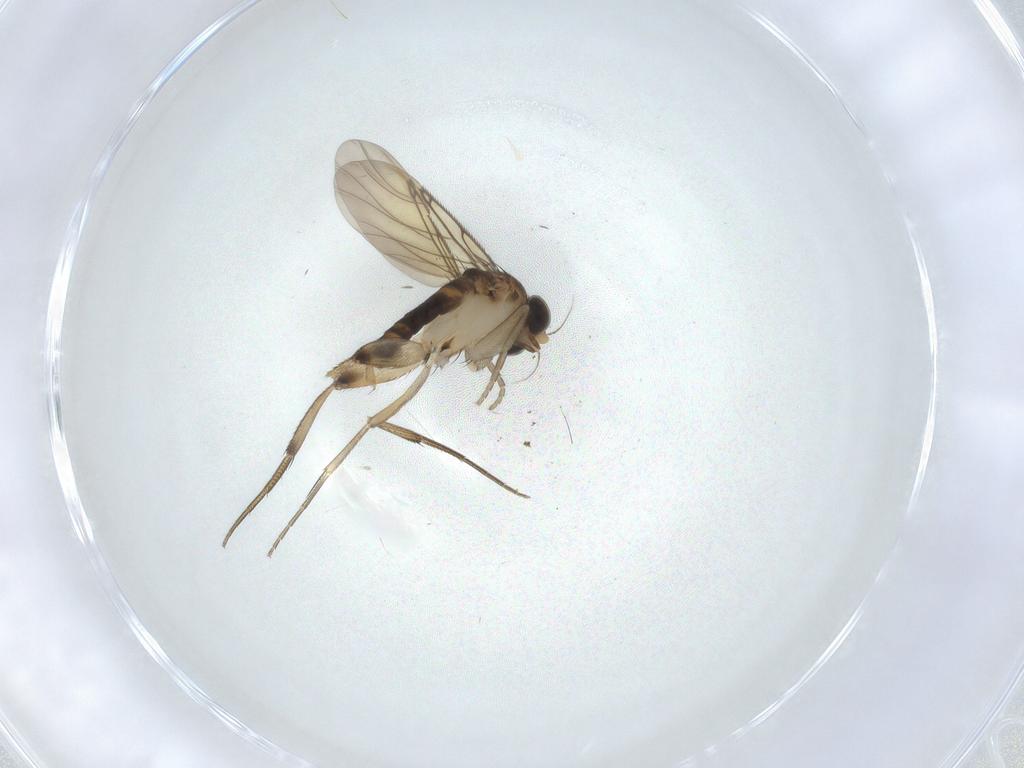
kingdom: Animalia
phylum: Arthropoda
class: Insecta
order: Diptera
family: Phoridae
